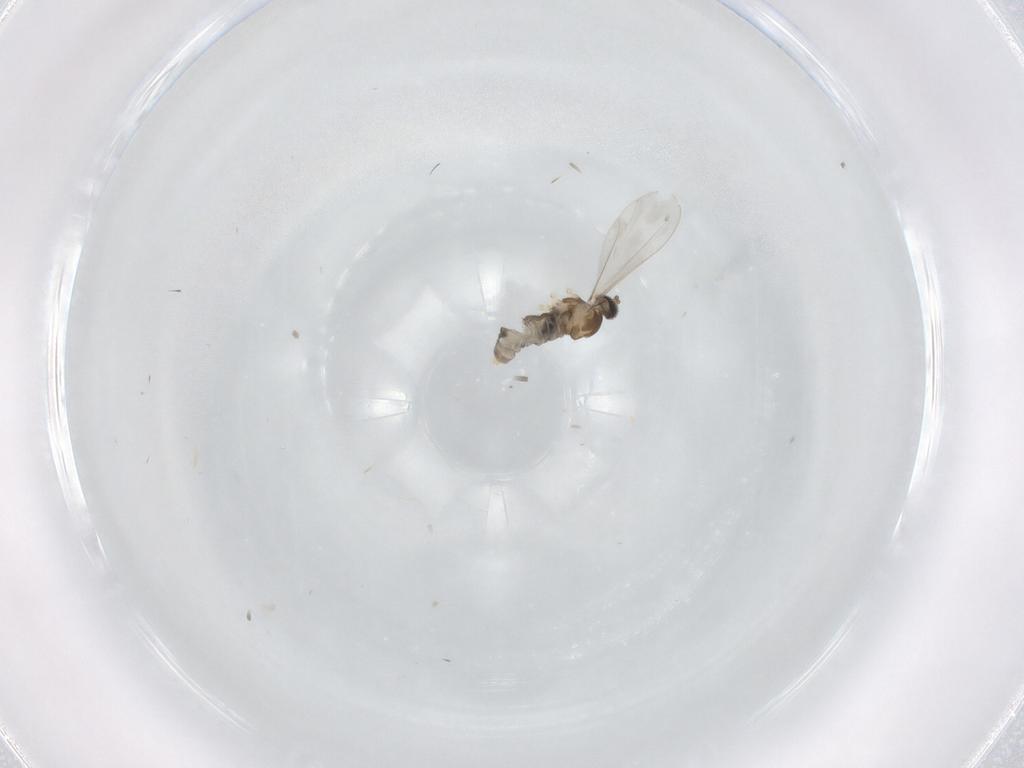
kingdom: Animalia
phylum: Arthropoda
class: Insecta
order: Diptera
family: Cecidomyiidae
